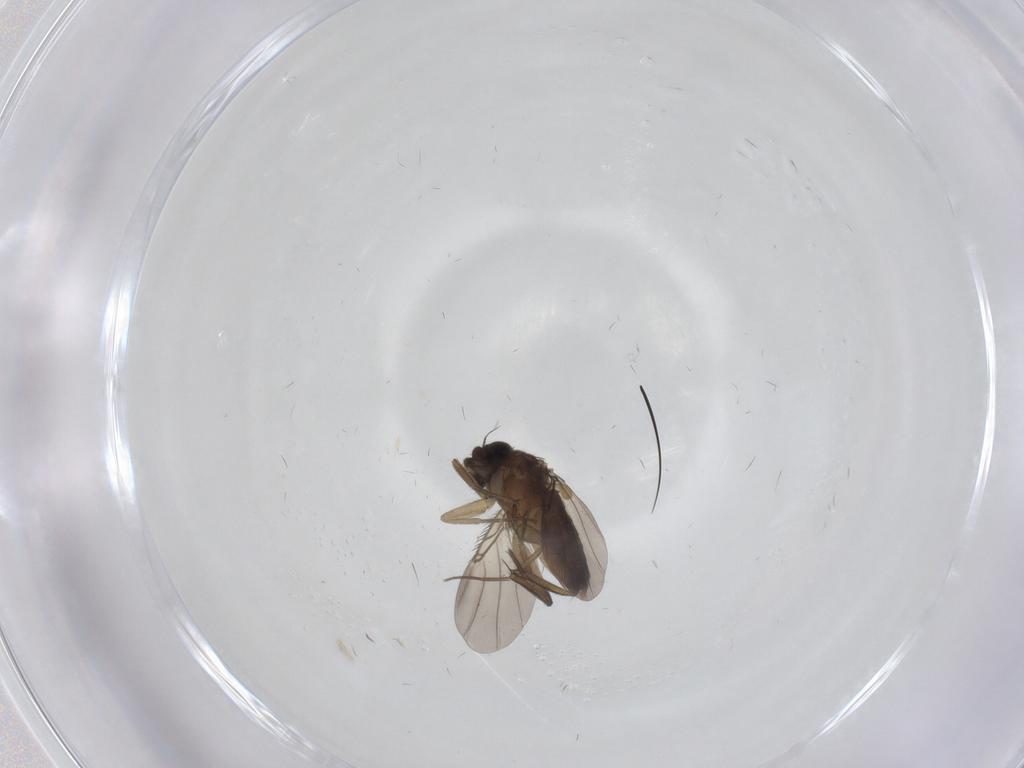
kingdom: Animalia
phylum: Arthropoda
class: Insecta
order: Diptera
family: Phoridae
